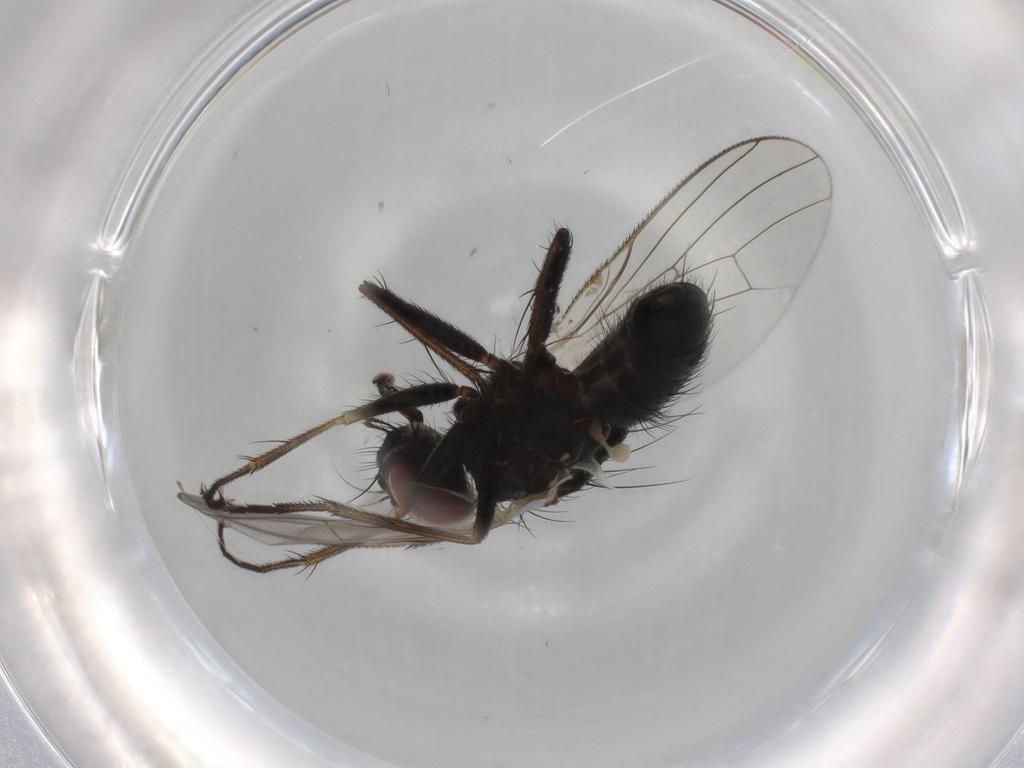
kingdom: Animalia
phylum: Arthropoda
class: Insecta
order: Diptera
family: Muscidae
